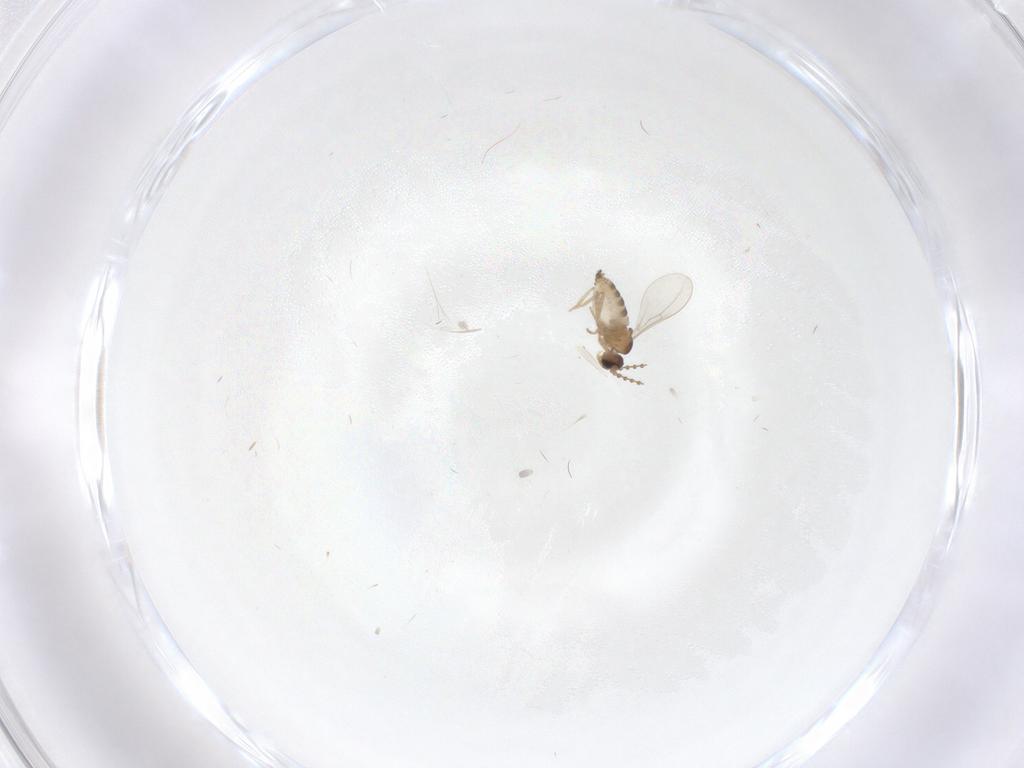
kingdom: Animalia
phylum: Arthropoda
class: Insecta
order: Diptera
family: Cecidomyiidae
